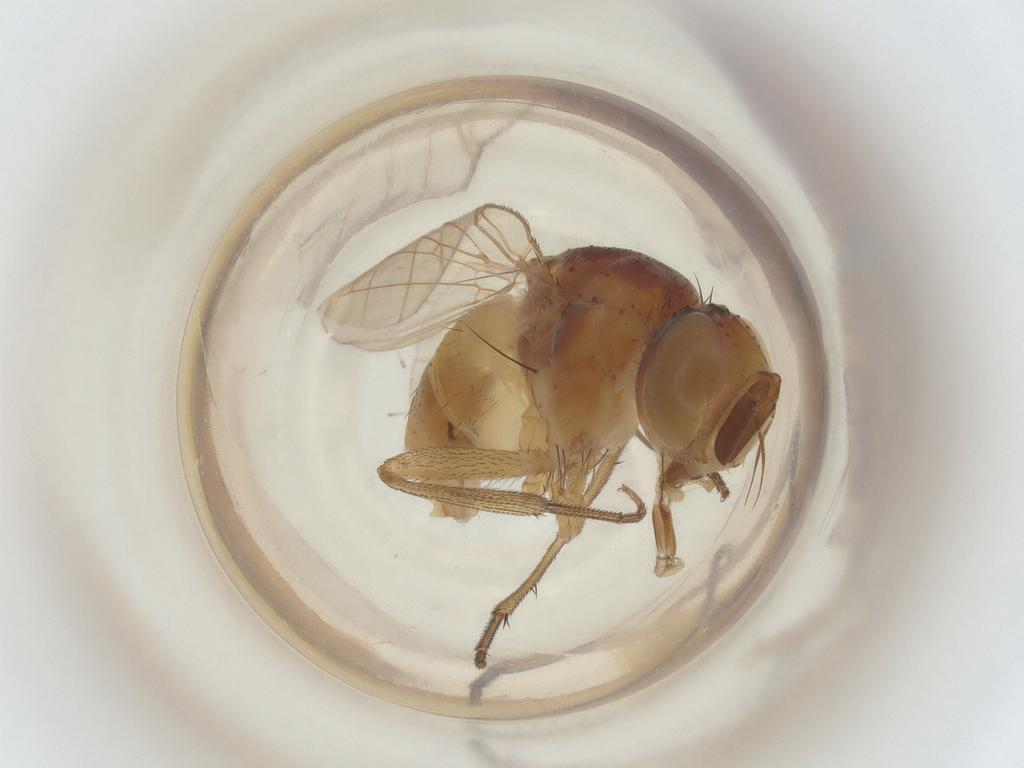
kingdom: Animalia
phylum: Arthropoda
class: Insecta
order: Diptera
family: Muscidae
